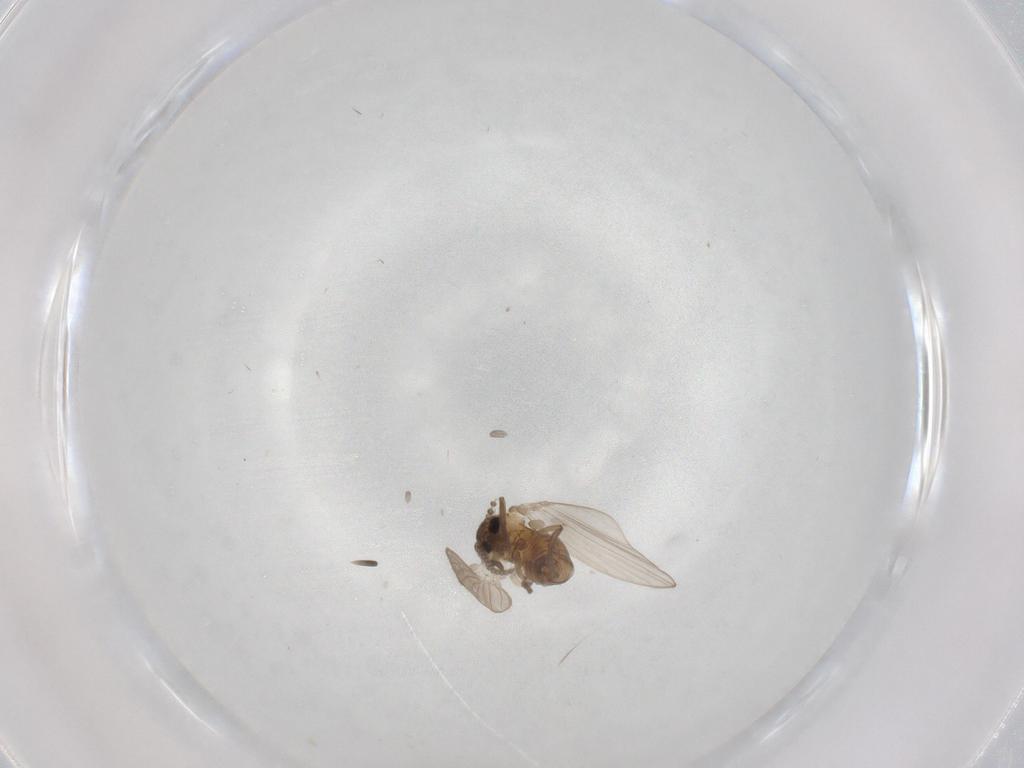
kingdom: Animalia
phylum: Arthropoda
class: Insecta
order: Diptera
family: Psychodidae
